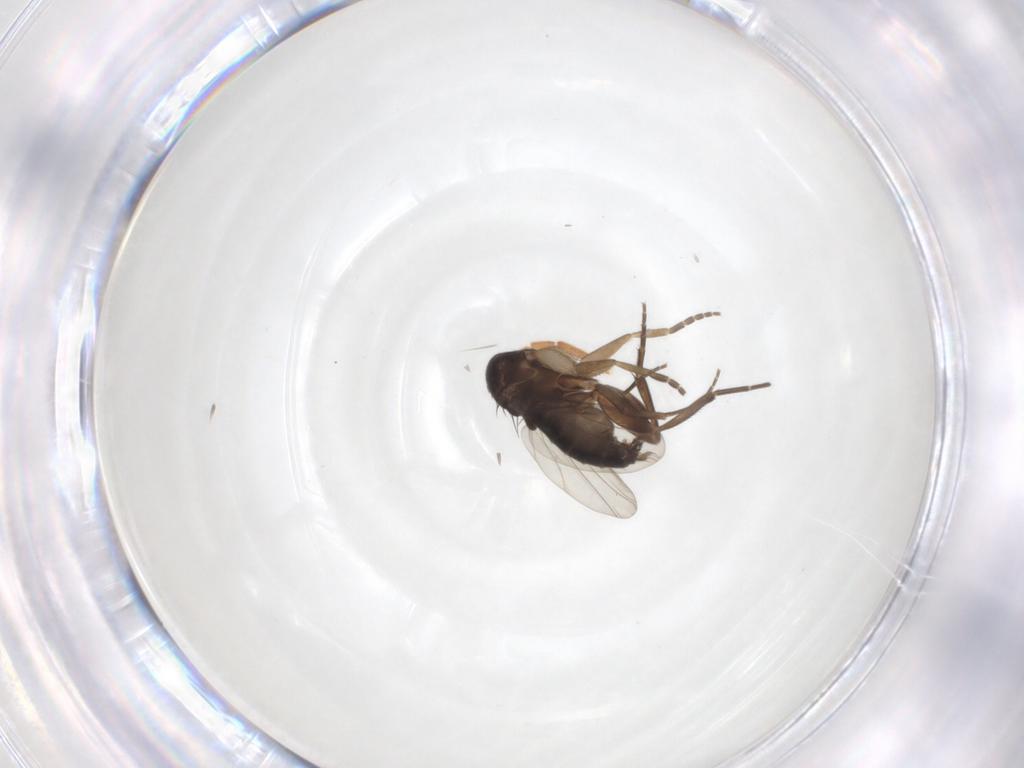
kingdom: Animalia
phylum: Arthropoda
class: Insecta
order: Diptera
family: Phoridae
